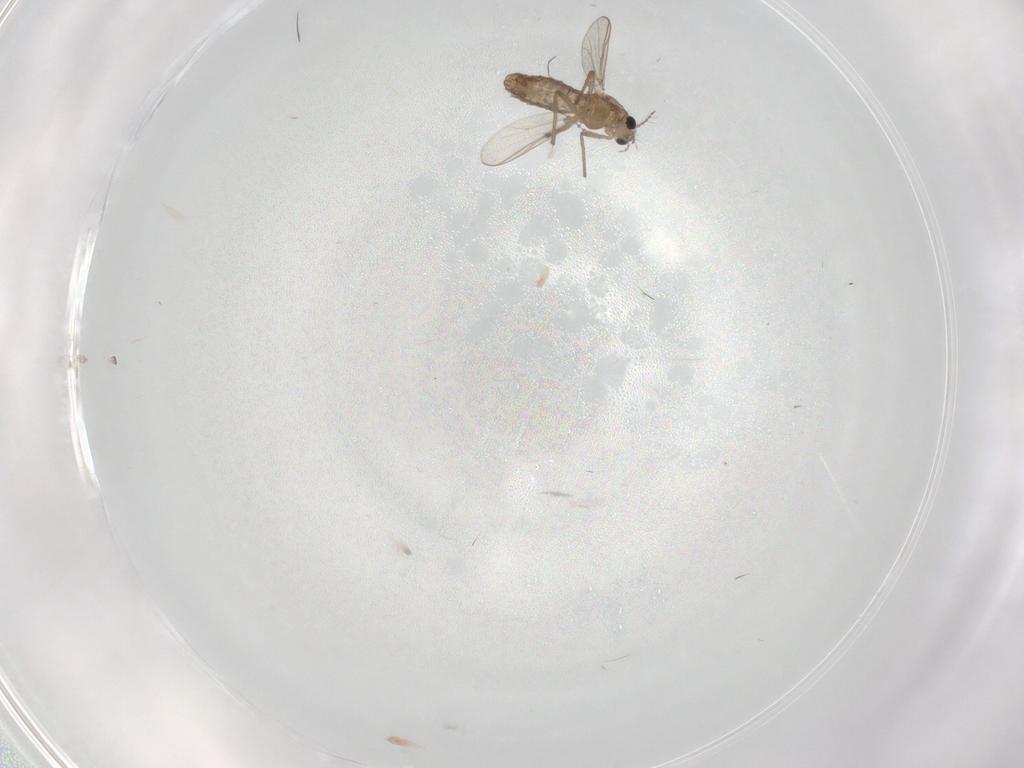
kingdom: Animalia
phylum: Arthropoda
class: Insecta
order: Diptera
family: Chironomidae
